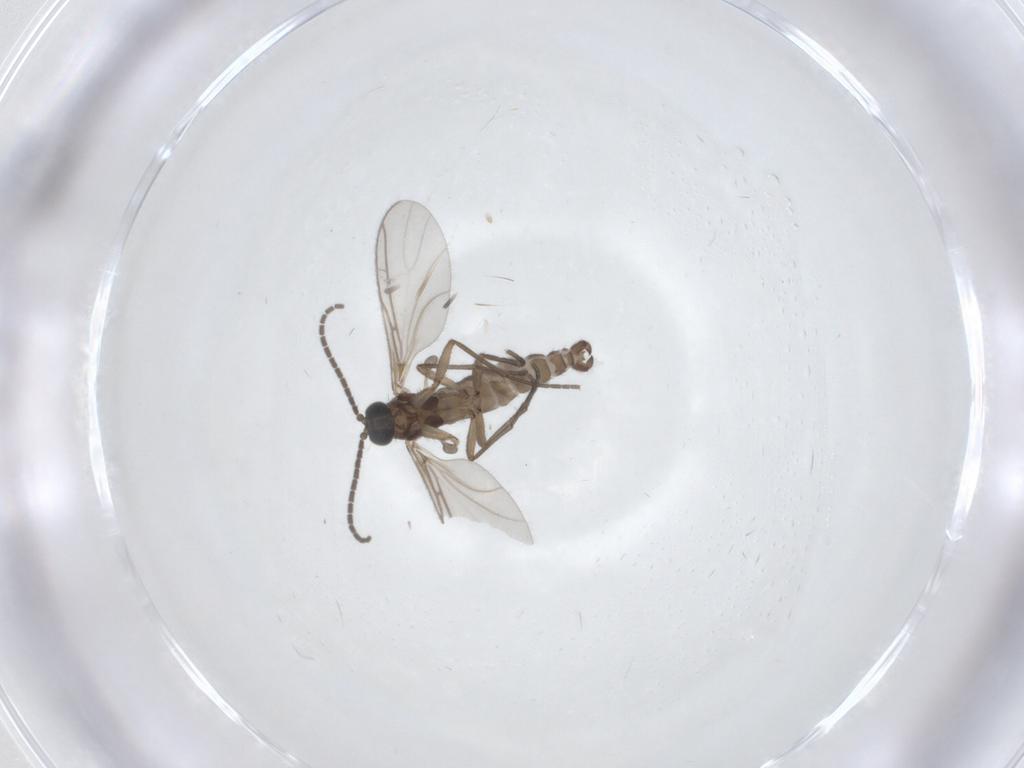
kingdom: Animalia
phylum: Arthropoda
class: Insecta
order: Diptera
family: Sciaridae
